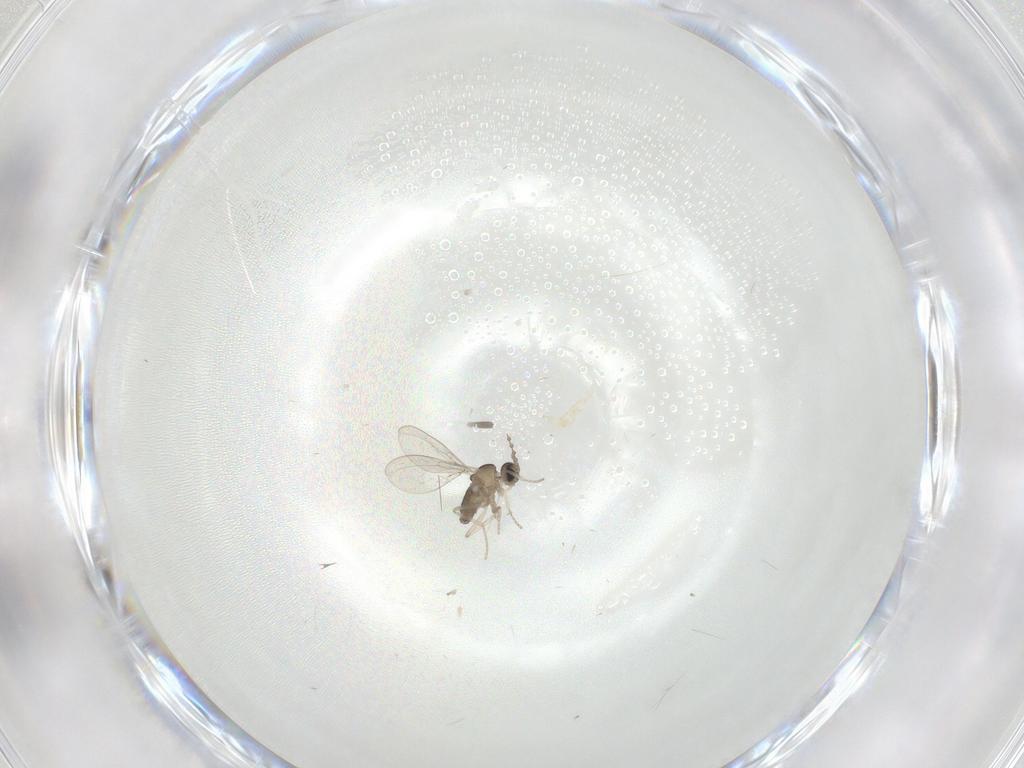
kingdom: Animalia
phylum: Arthropoda
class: Insecta
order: Diptera
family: Cecidomyiidae
